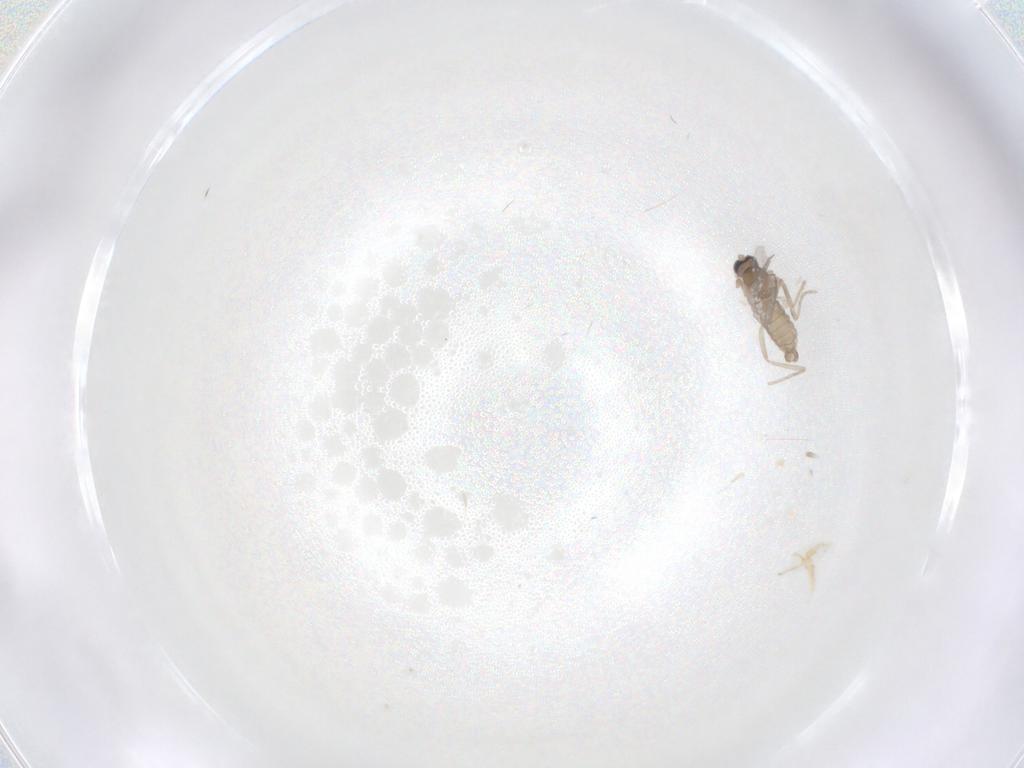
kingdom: Animalia
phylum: Arthropoda
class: Insecta
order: Diptera
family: Cecidomyiidae
